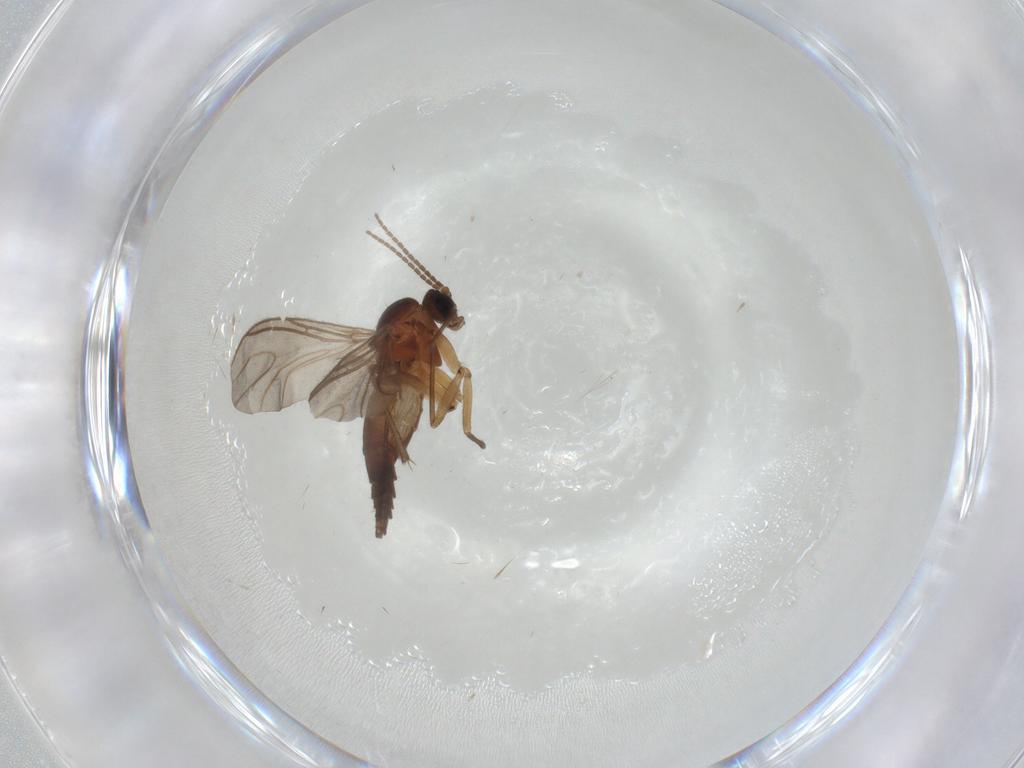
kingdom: Animalia
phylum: Arthropoda
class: Insecta
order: Diptera
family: Sciaridae
